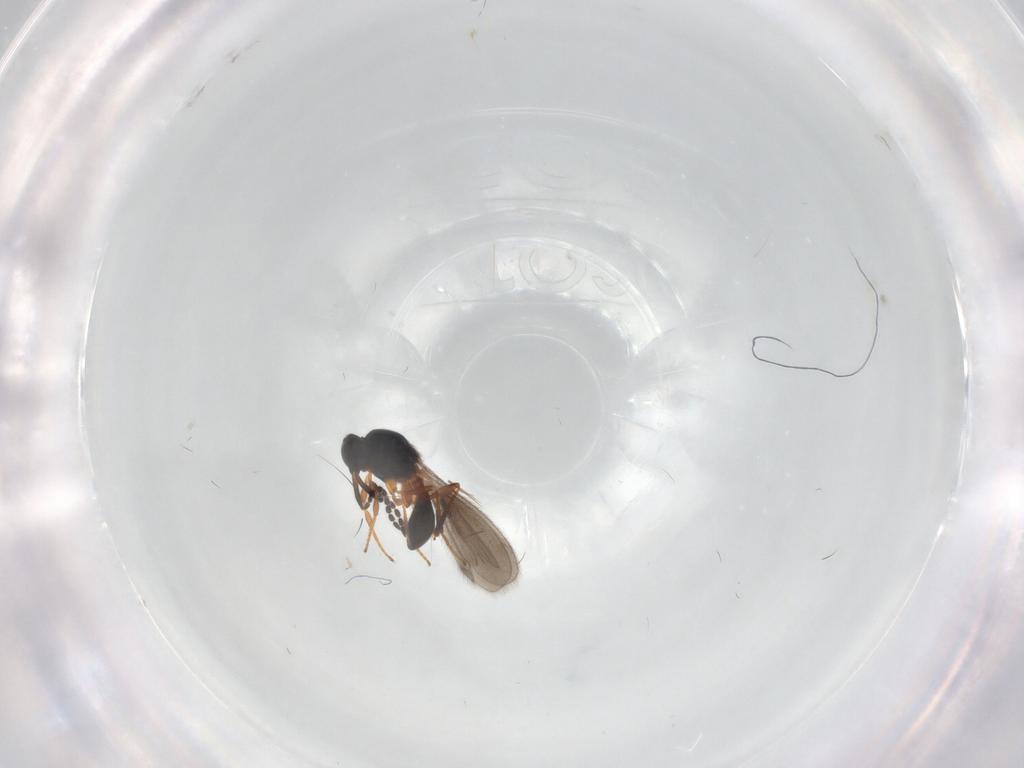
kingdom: Animalia
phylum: Arthropoda
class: Insecta
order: Hymenoptera
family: Platygastridae
